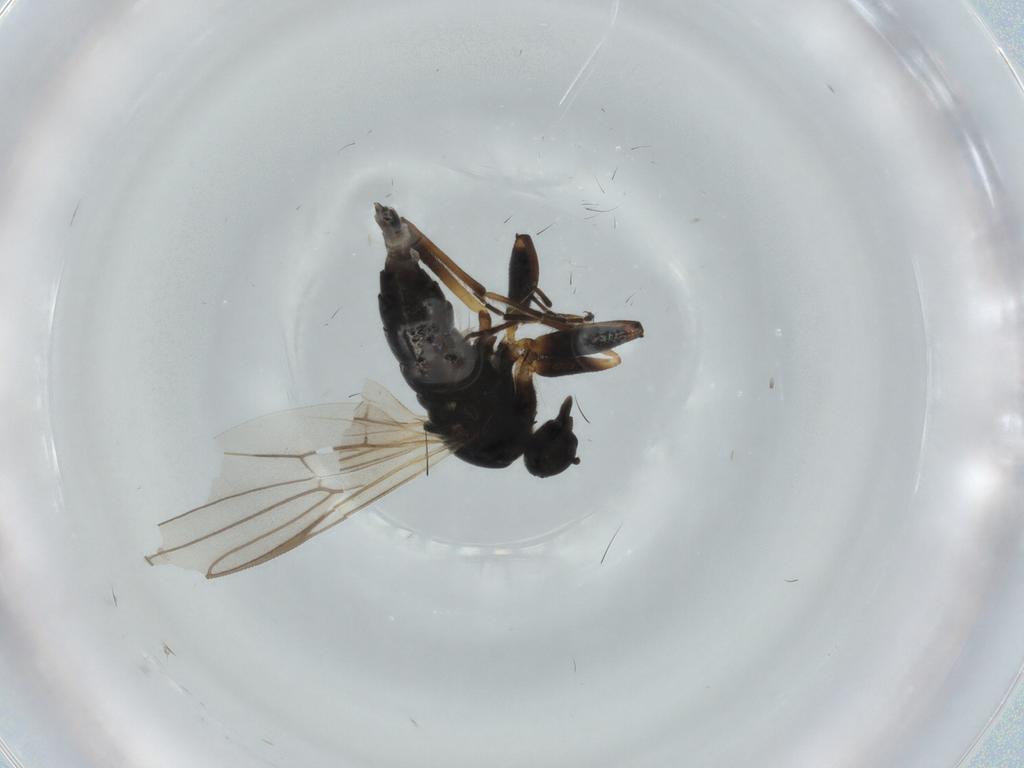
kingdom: Animalia
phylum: Arthropoda
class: Insecta
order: Diptera
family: Hybotidae
